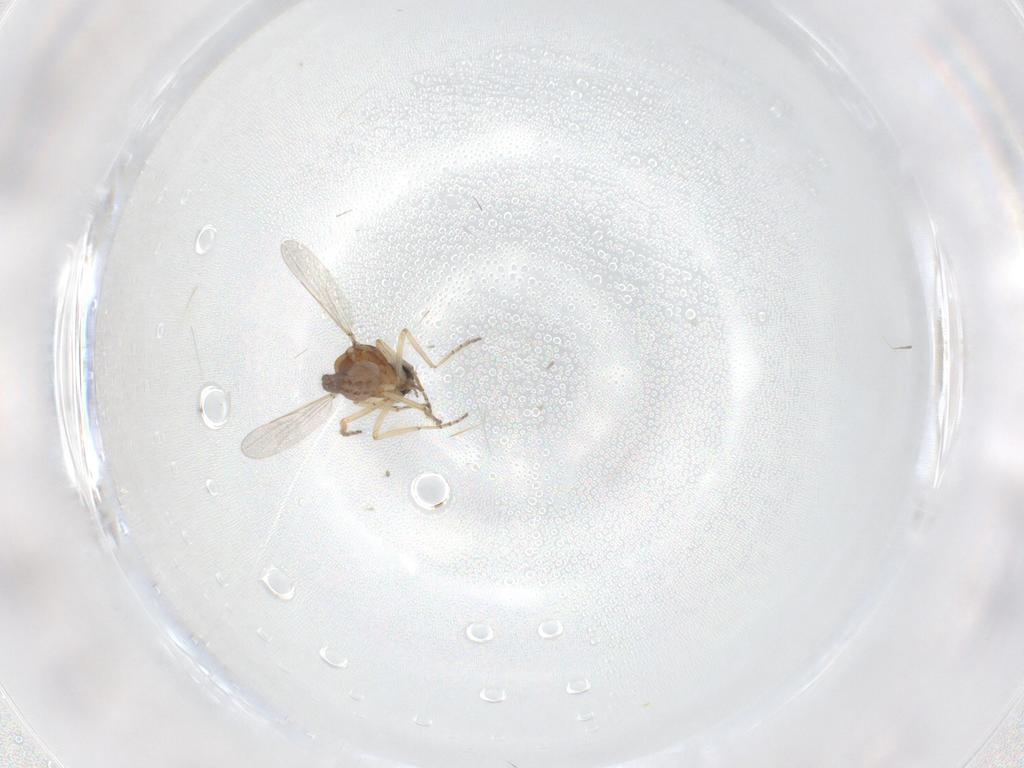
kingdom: Animalia
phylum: Arthropoda
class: Insecta
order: Diptera
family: Ceratopogonidae
